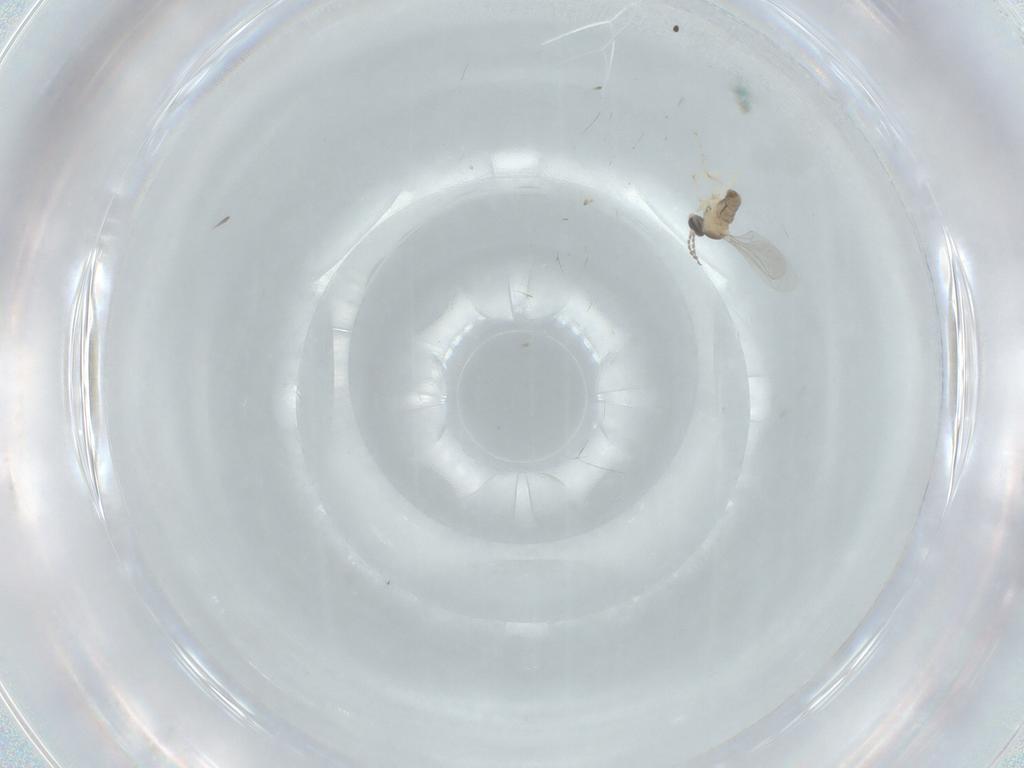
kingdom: Animalia
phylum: Arthropoda
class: Insecta
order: Diptera
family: Cecidomyiidae
